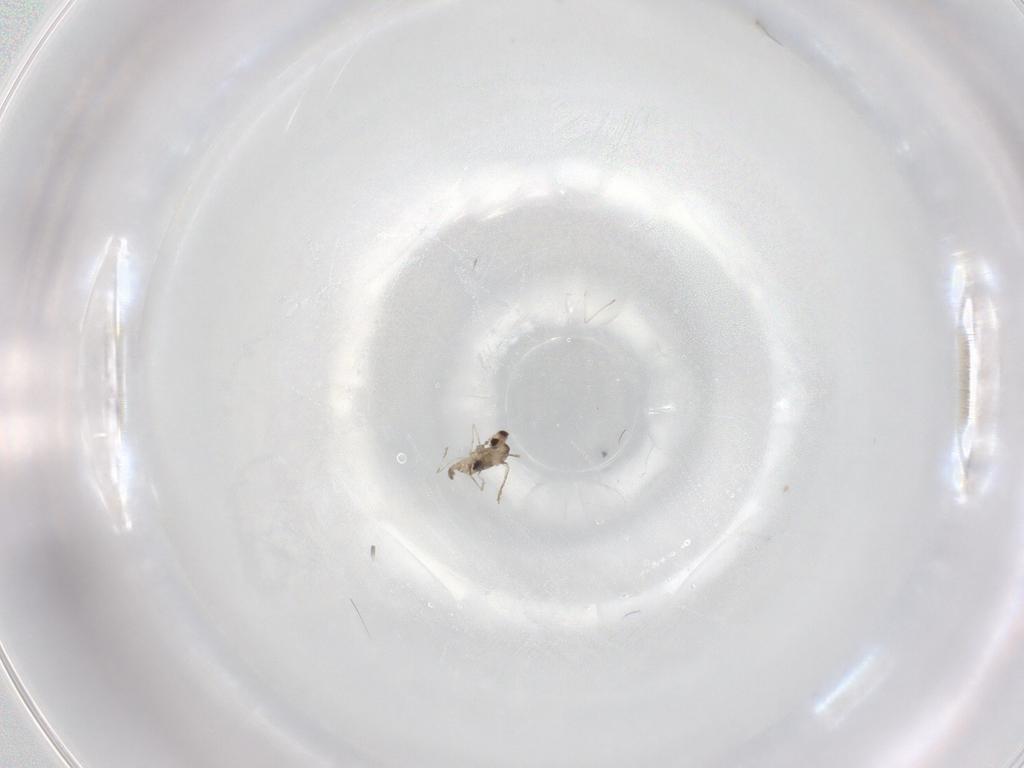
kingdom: Animalia
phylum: Arthropoda
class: Insecta
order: Diptera
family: Cecidomyiidae
